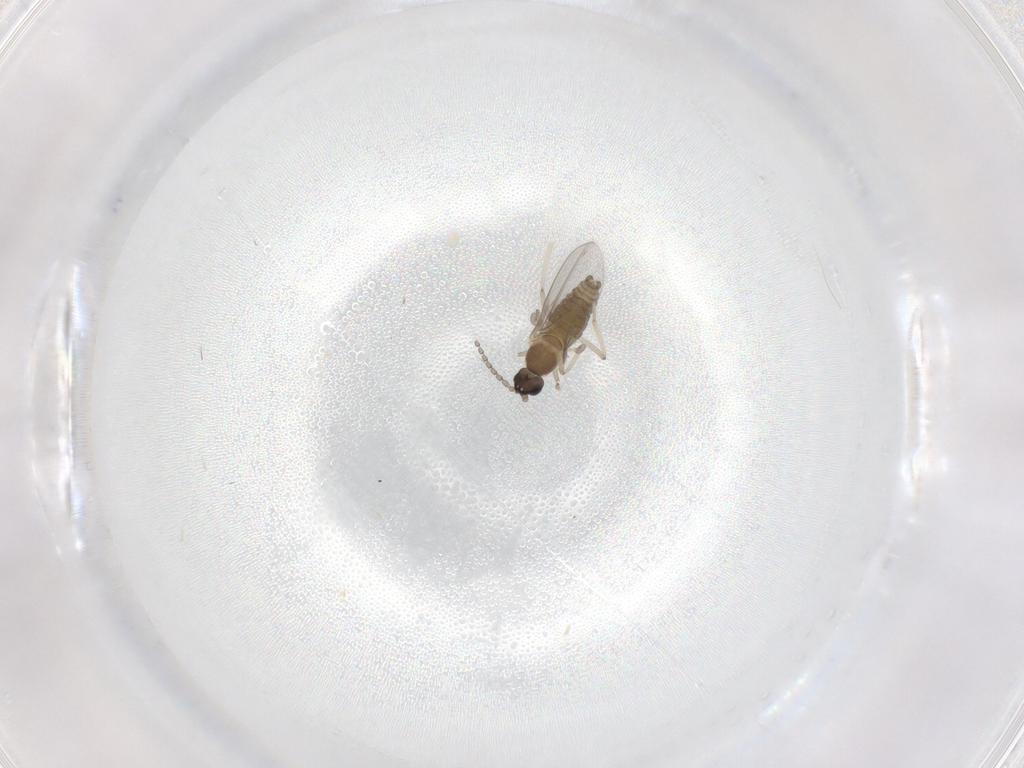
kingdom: Animalia
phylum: Arthropoda
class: Insecta
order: Diptera
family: Cecidomyiidae
